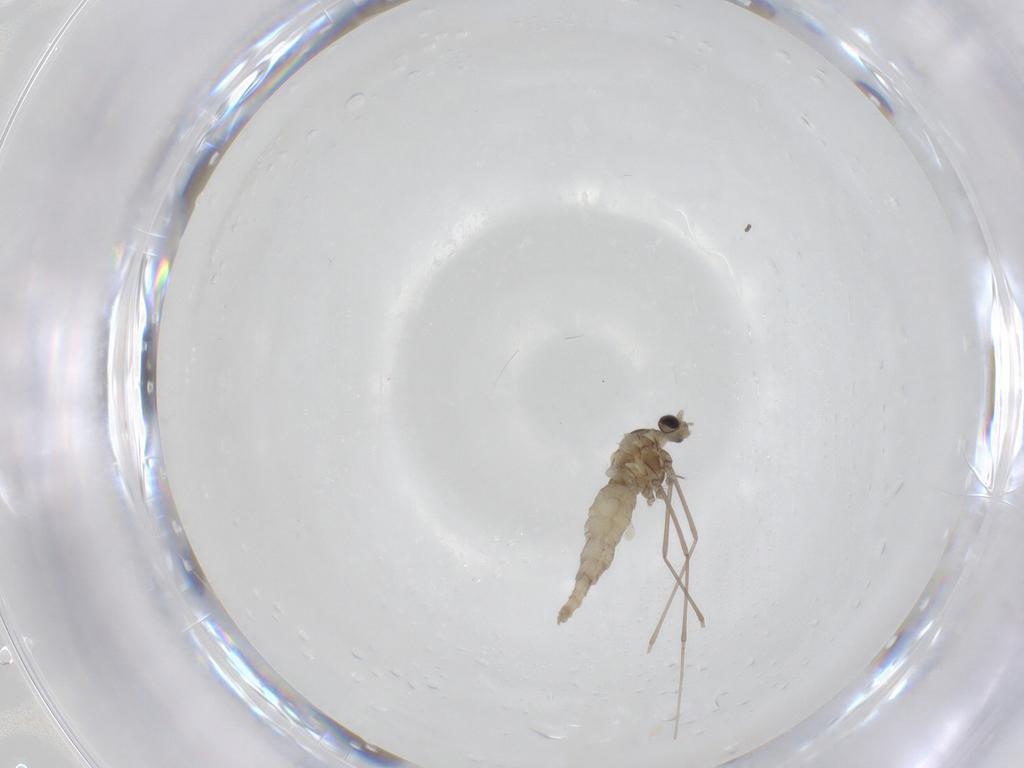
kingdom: Animalia
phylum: Arthropoda
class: Insecta
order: Diptera
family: Sciaridae
